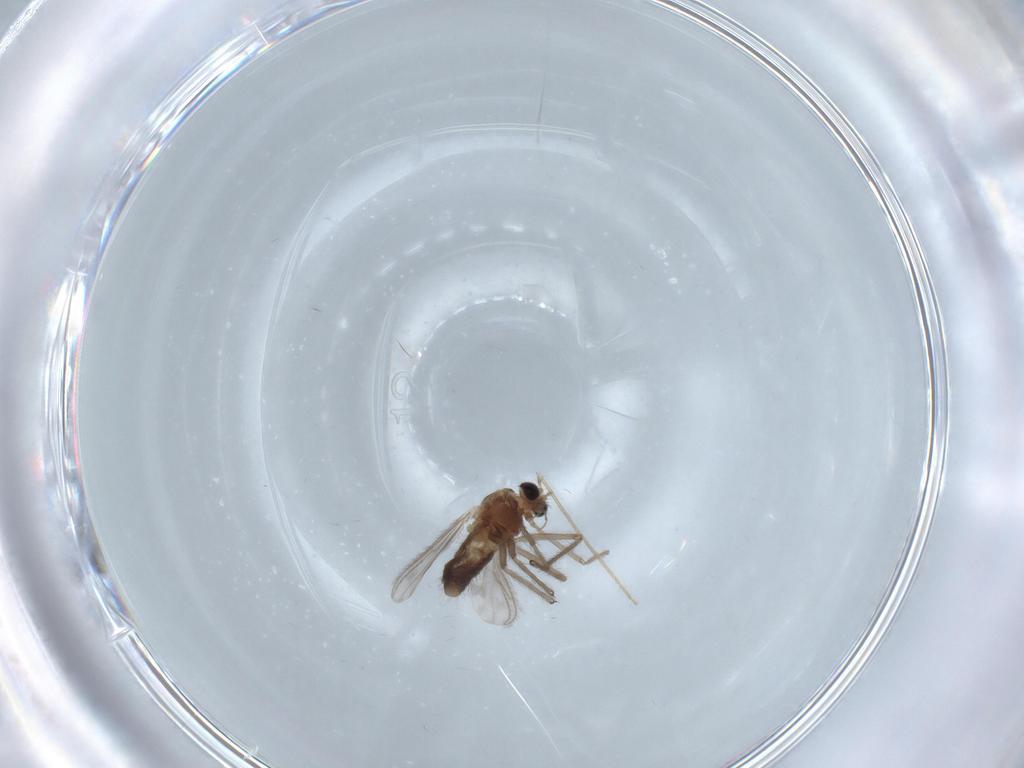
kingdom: Animalia
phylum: Arthropoda
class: Insecta
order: Diptera
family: Chironomidae
